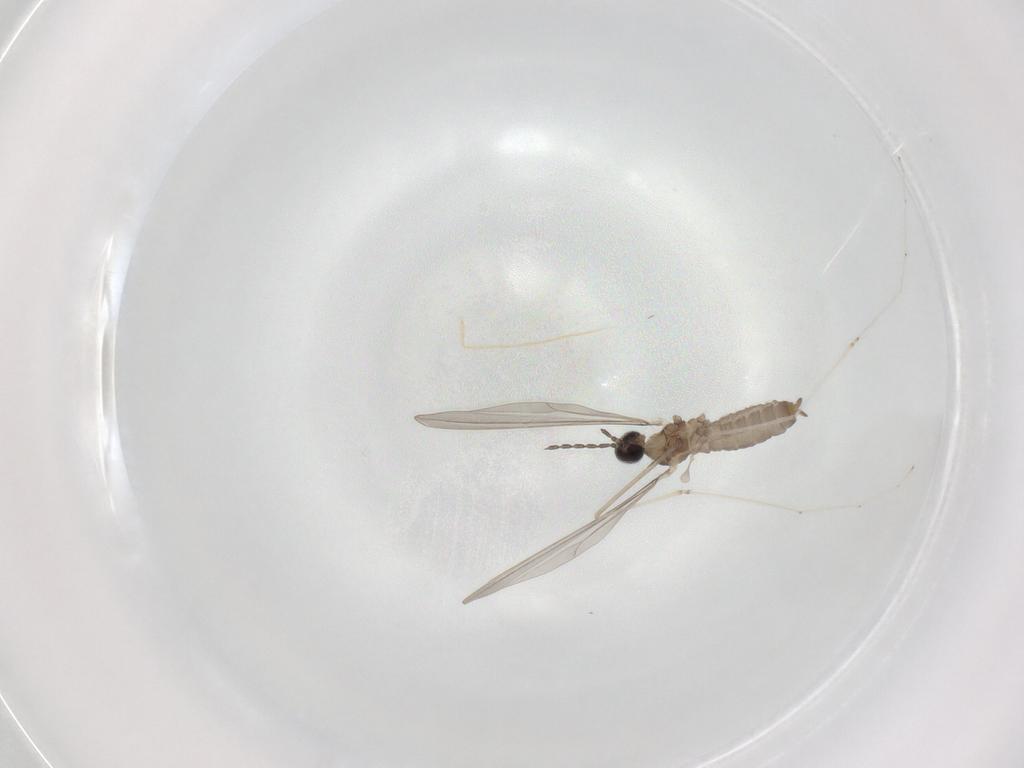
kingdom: Animalia
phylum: Arthropoda
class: Insecta
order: Diptera
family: Cecidomyiidae
